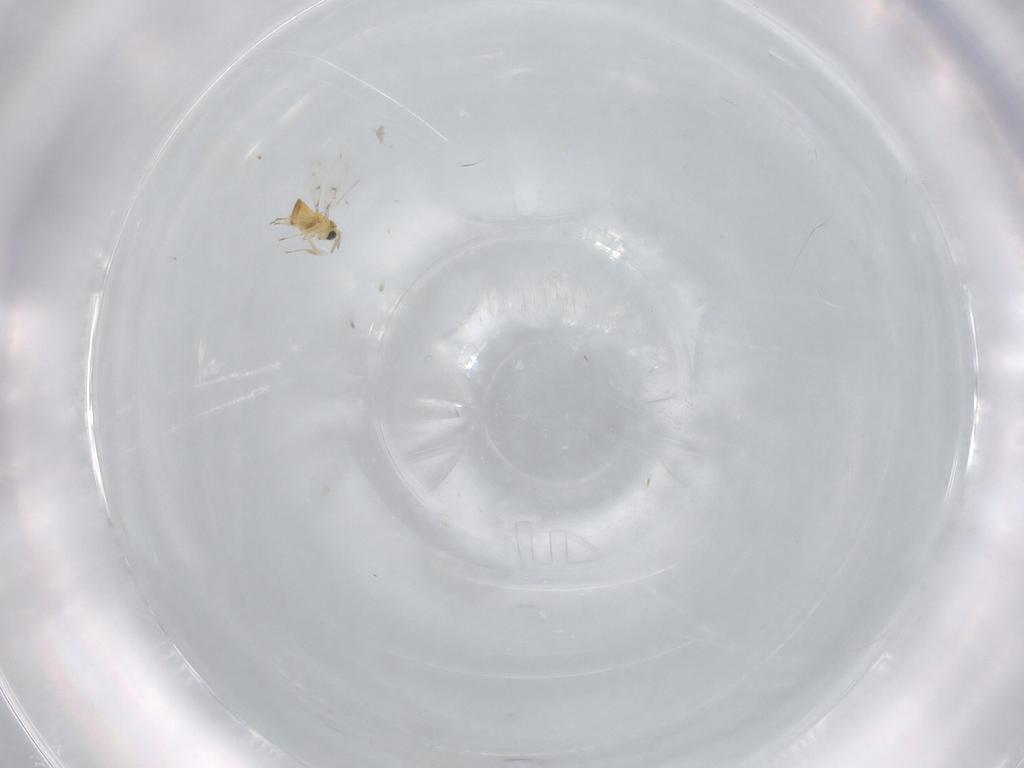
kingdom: Animalia
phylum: Arthropoda
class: Insecta
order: Hymenoptera
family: Trichogrammatidae
